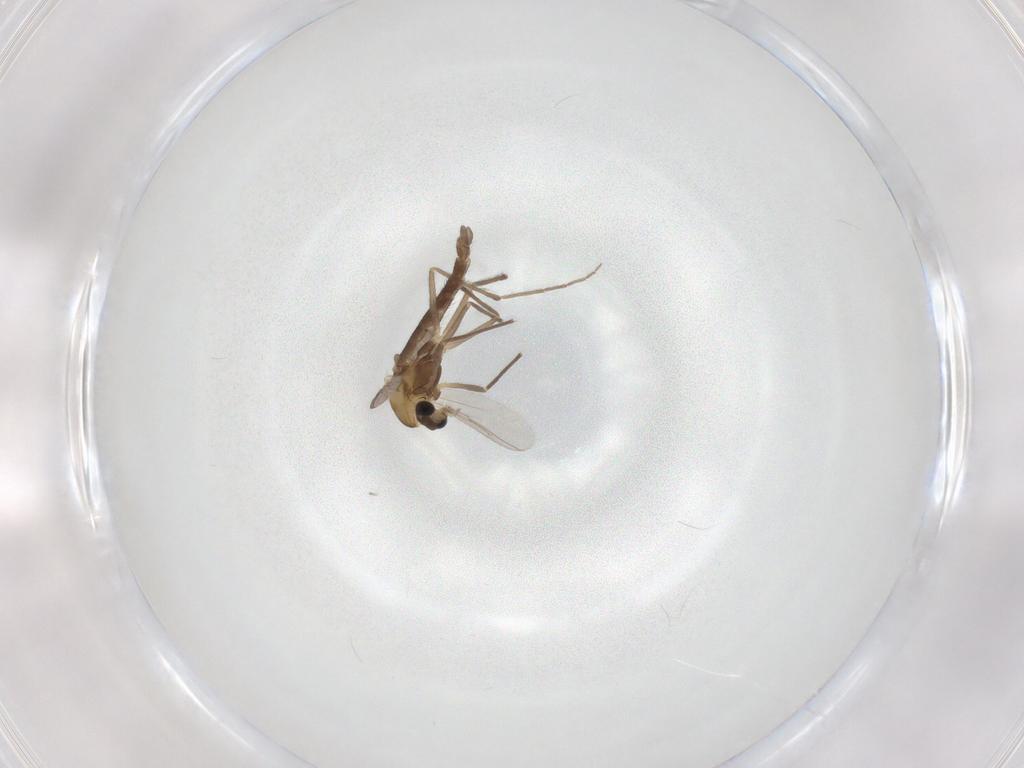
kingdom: Animalia
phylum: Arthropoda
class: Insecta
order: Diptera
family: Chironomidae
